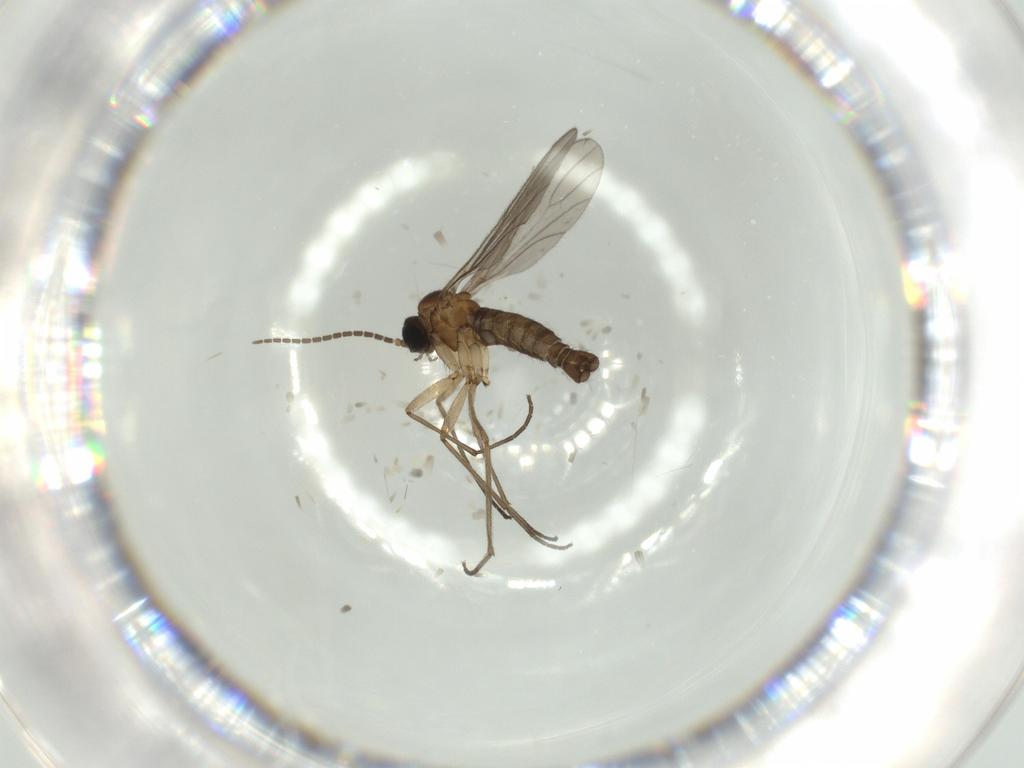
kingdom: Animalia
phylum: Arthropoda
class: Insecta
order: Diptera
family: Sciaridae
